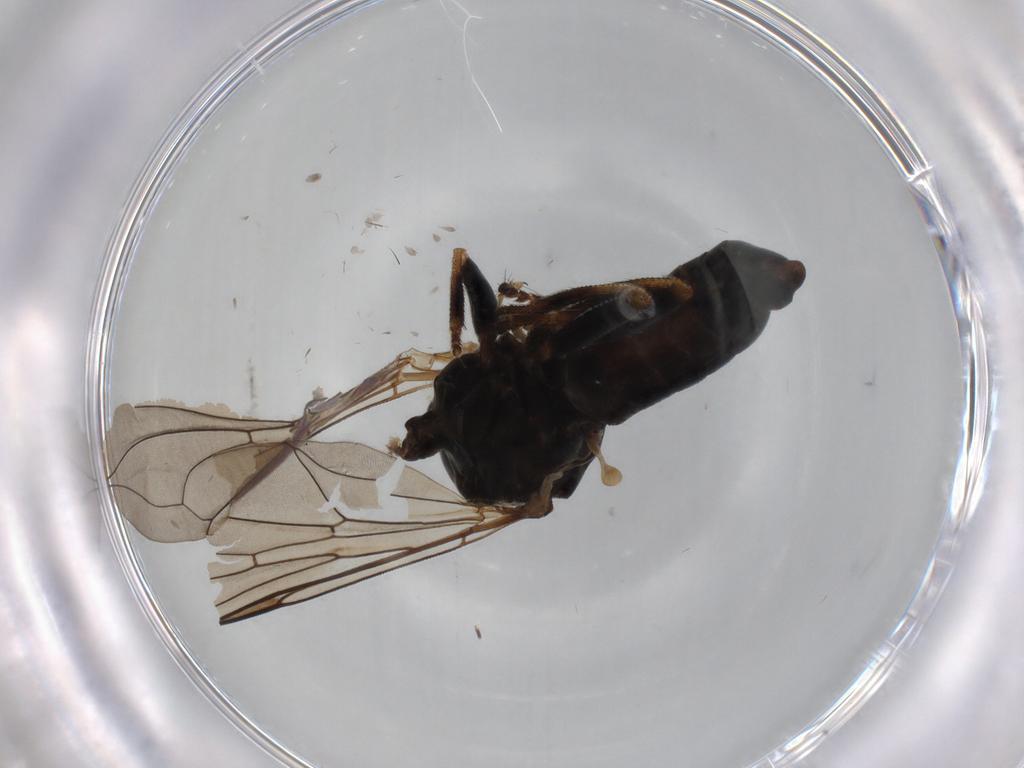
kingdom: Animalia
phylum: Arthropoda
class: Insecta
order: Diptera
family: Pipunculidae
